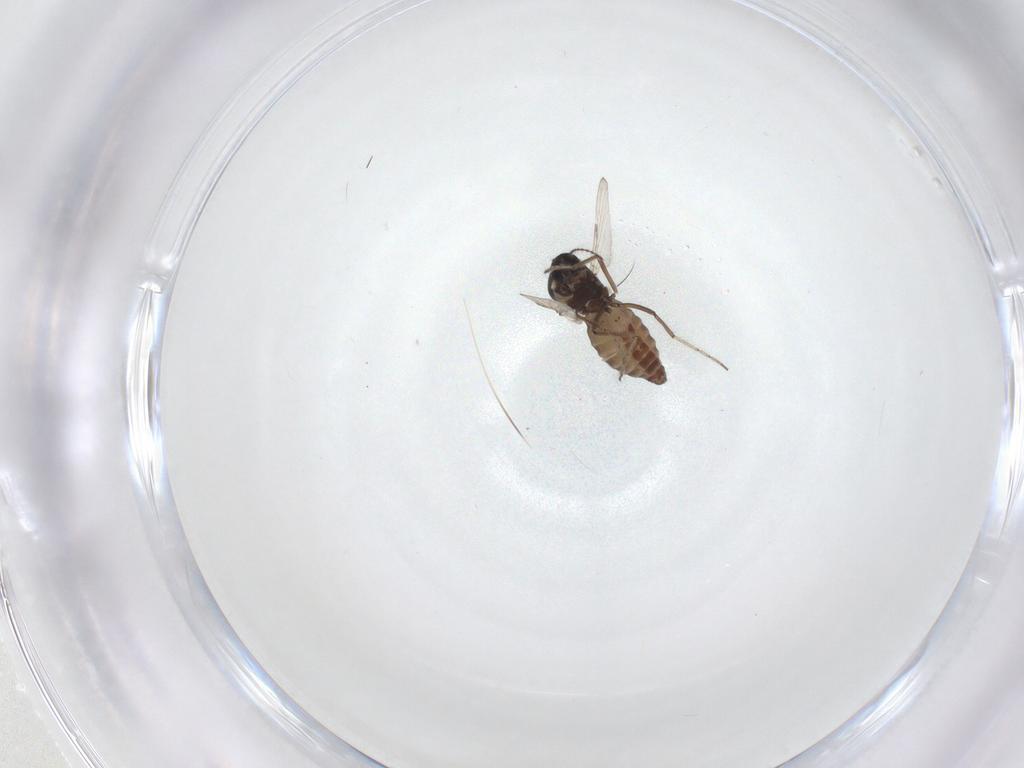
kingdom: Animalia
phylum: Arthropoda
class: Insecta
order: Diptera
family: Ceratopogonidae
